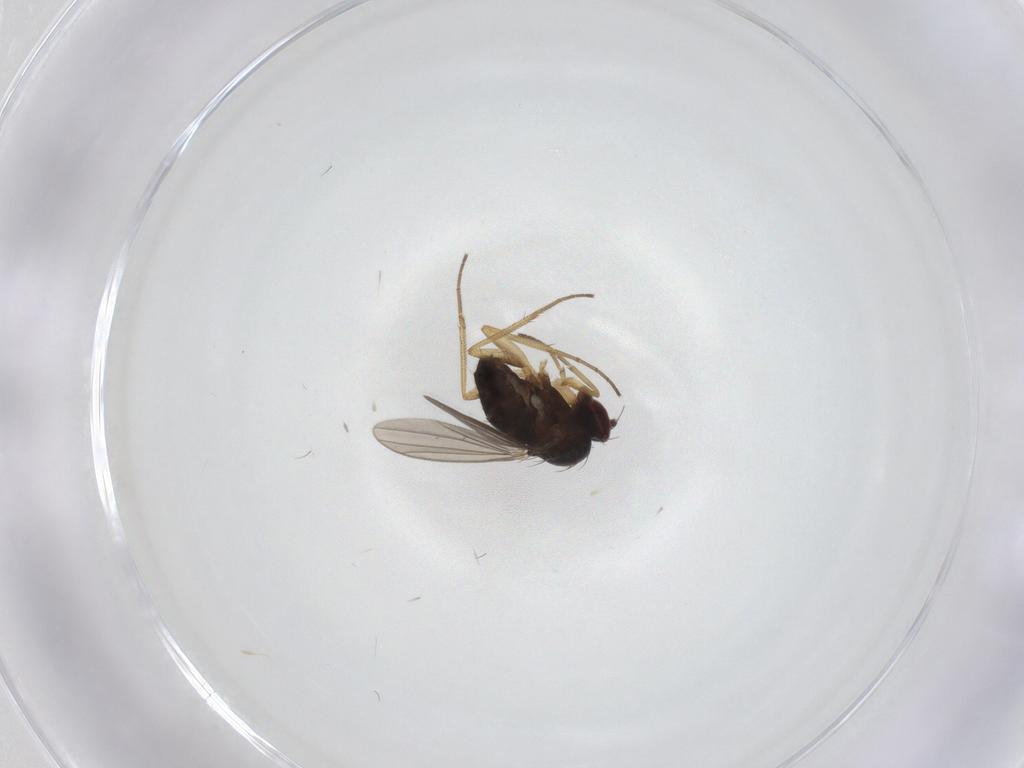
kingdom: Animalia
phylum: Arthropoda
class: Insecta
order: Diptera
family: Dolichopodidae
